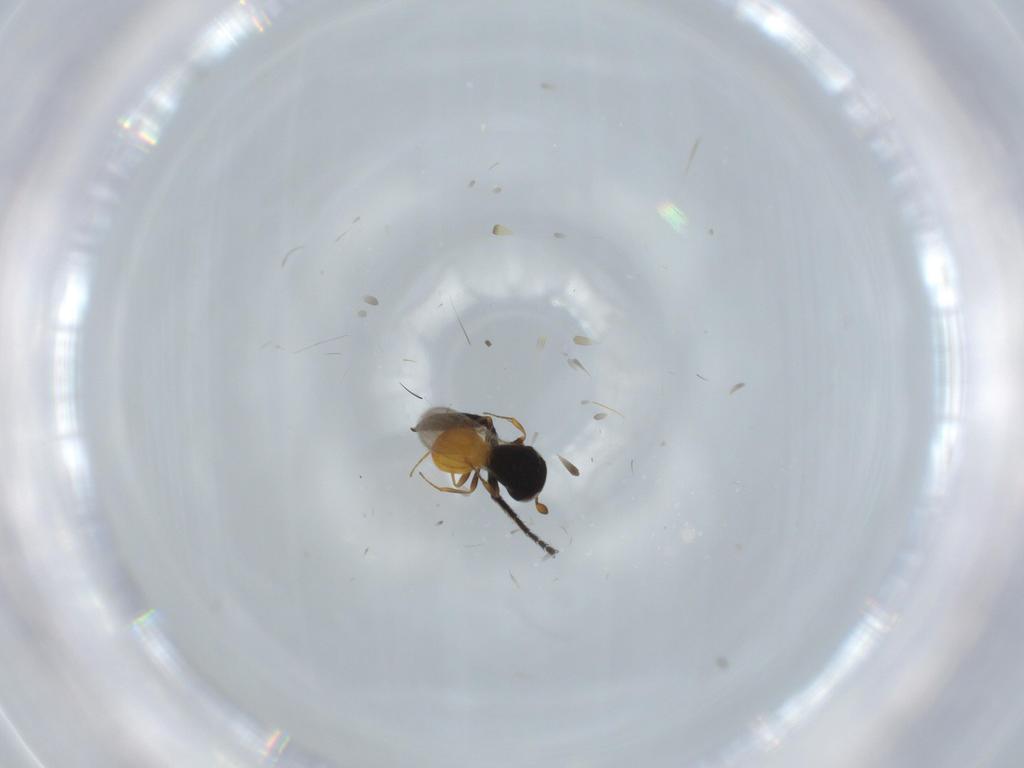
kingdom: Animalia
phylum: Arthropoda
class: Insecta
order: Hymenoptera
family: Scelionidae
